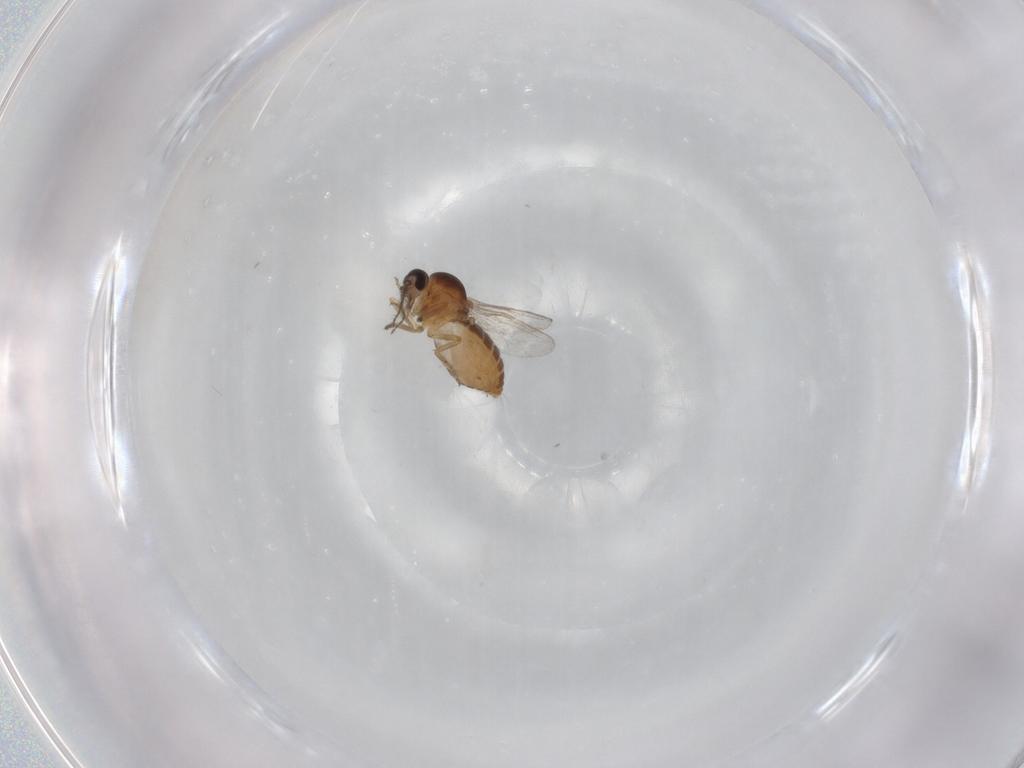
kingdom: Animalia
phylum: Arthropoda
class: Insecta
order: Diptera
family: Ceratopogonidae
